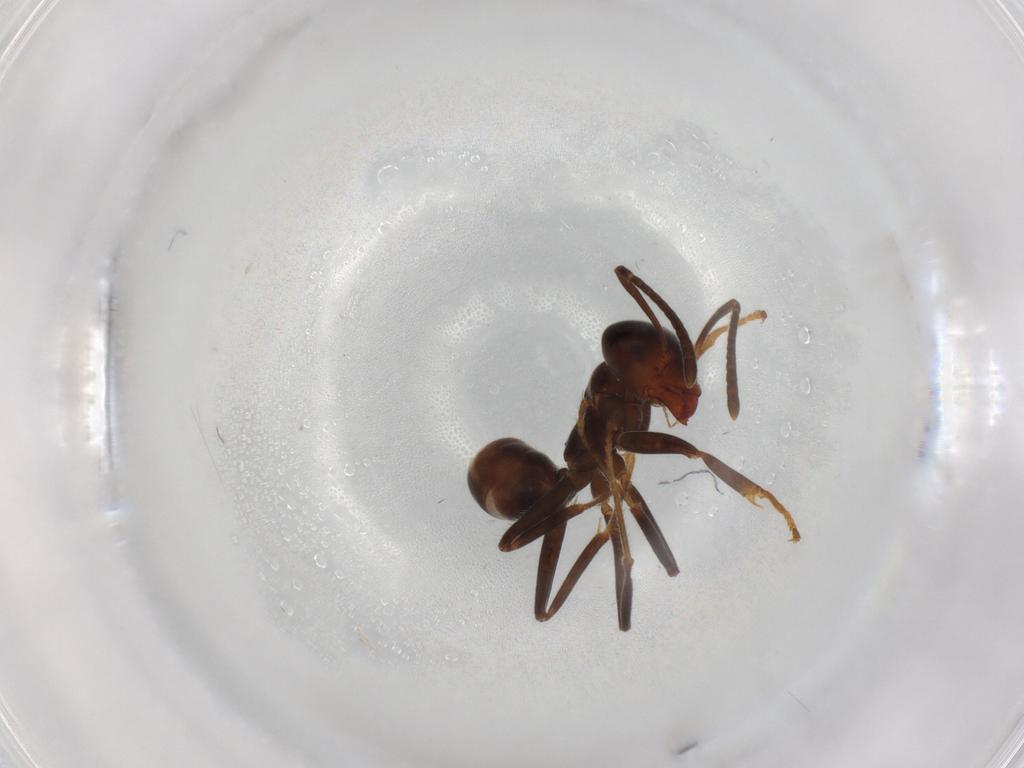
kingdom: Animalia
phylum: Arthropoda
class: Insecta
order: Hymenoptera
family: Formicidae
